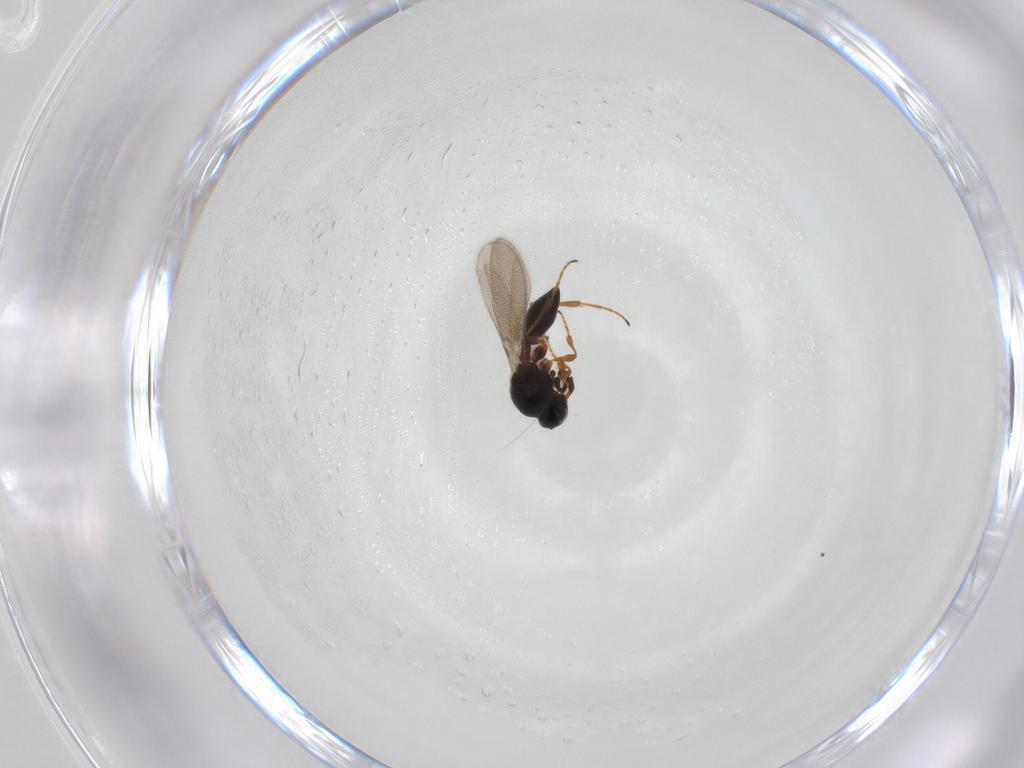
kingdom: Animalia
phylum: Arthropoda
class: Insecta
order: Hymenoptera
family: Platygastridae
